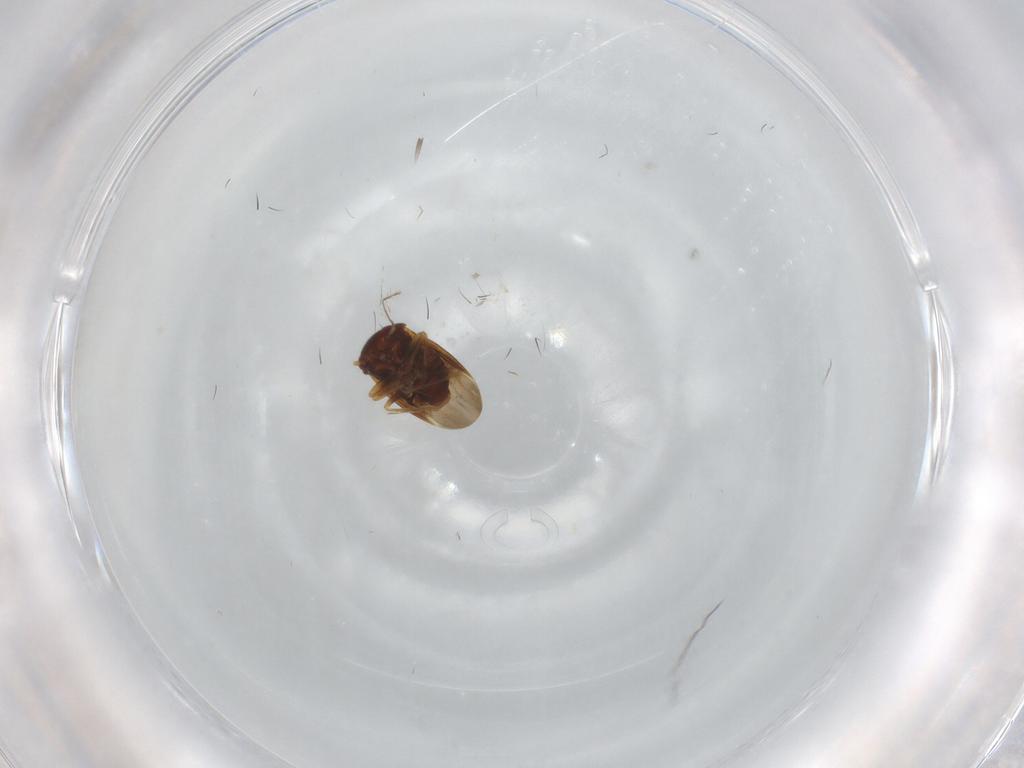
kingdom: Animalia
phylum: Arthropoda
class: Insecta
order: Hemiptera
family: Schizopteridae
